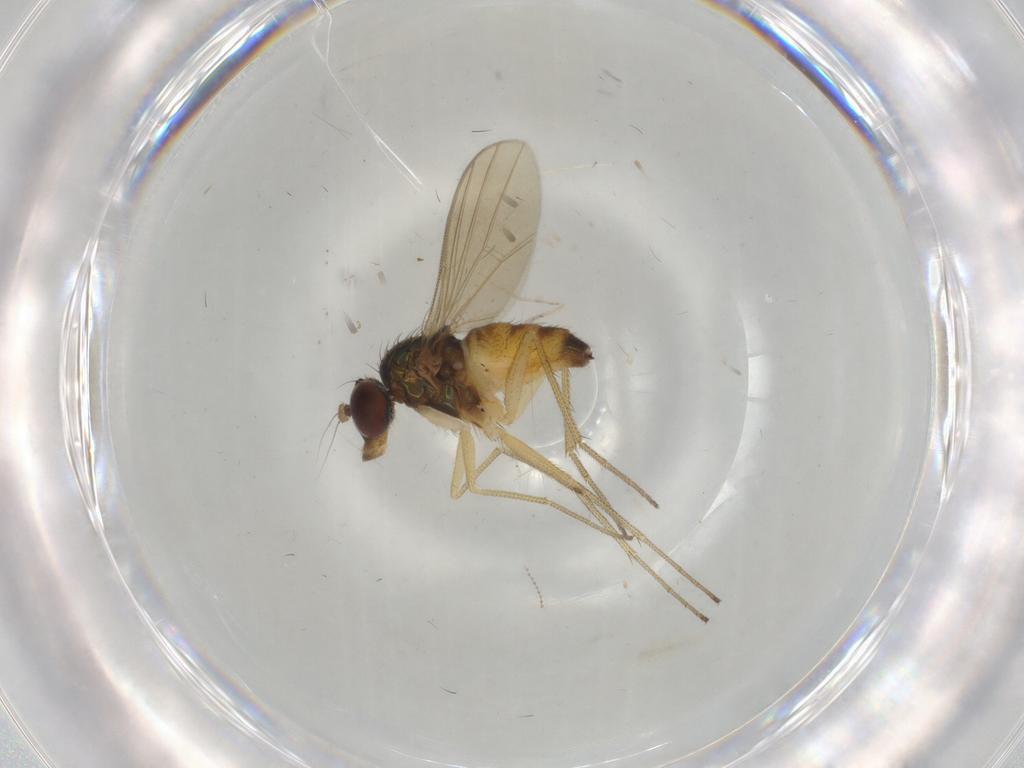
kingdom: Animalia
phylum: Arthropoda
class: Insecta
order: Diptera
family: Dolichopodidae
